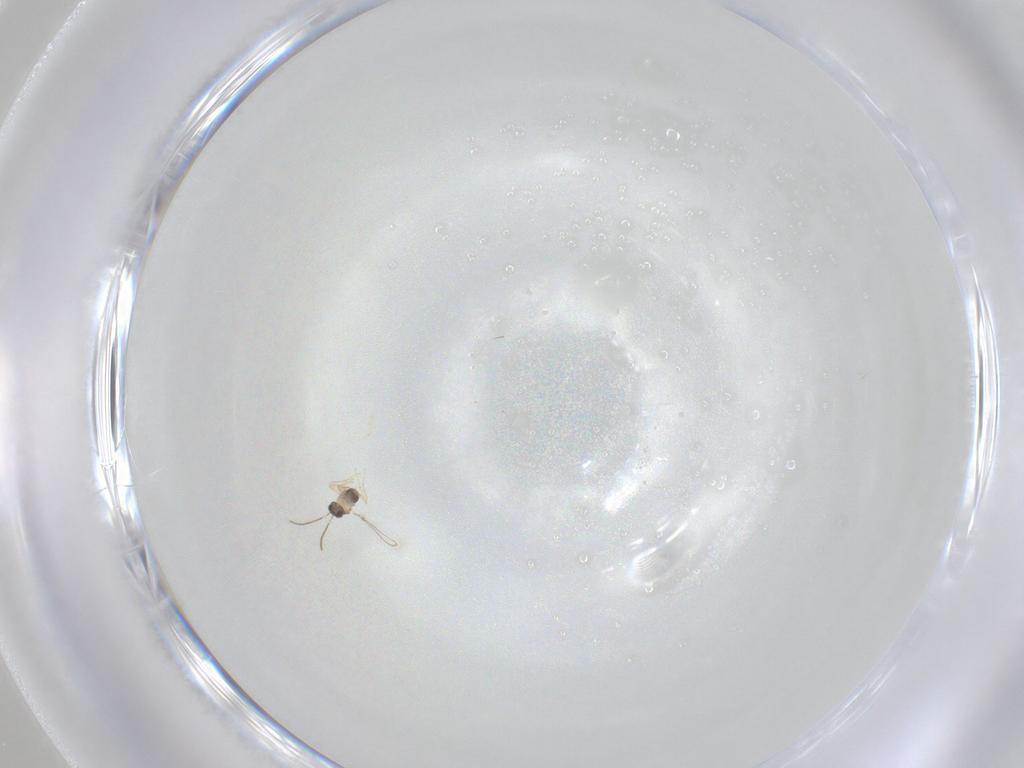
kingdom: Animalia
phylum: Arthropoda
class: Insecta
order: Hymenoptera
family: Mymaridae
